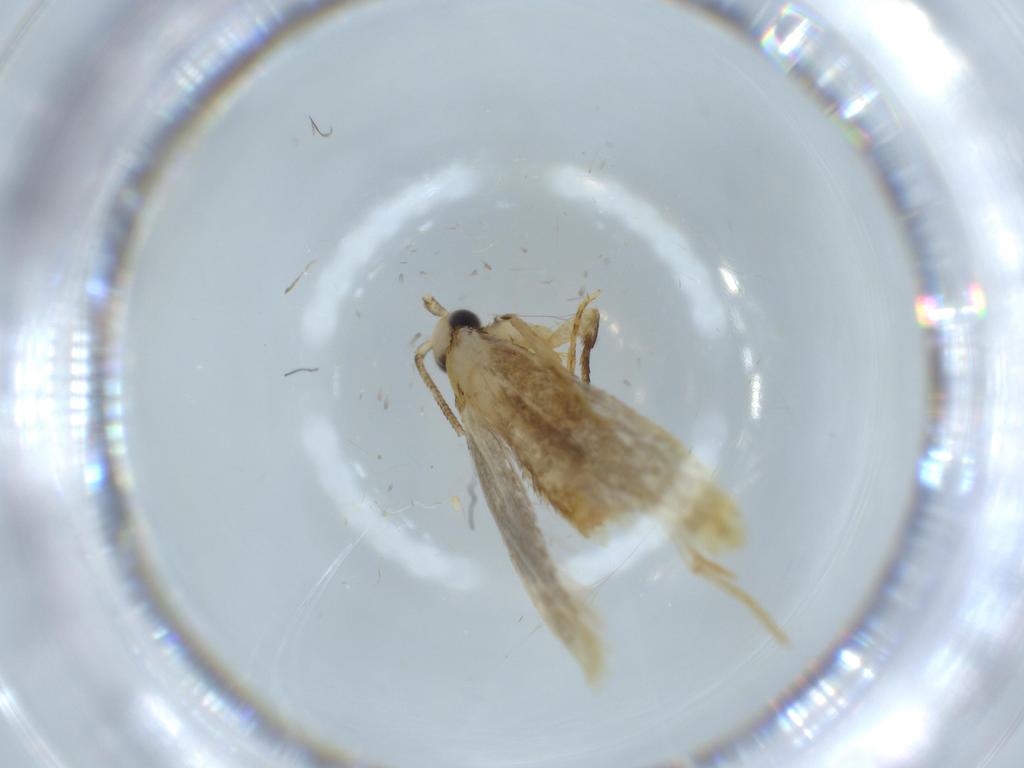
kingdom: Animalia
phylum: Arthropoda
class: Insecta
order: Lepidoptera
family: Tineidae
